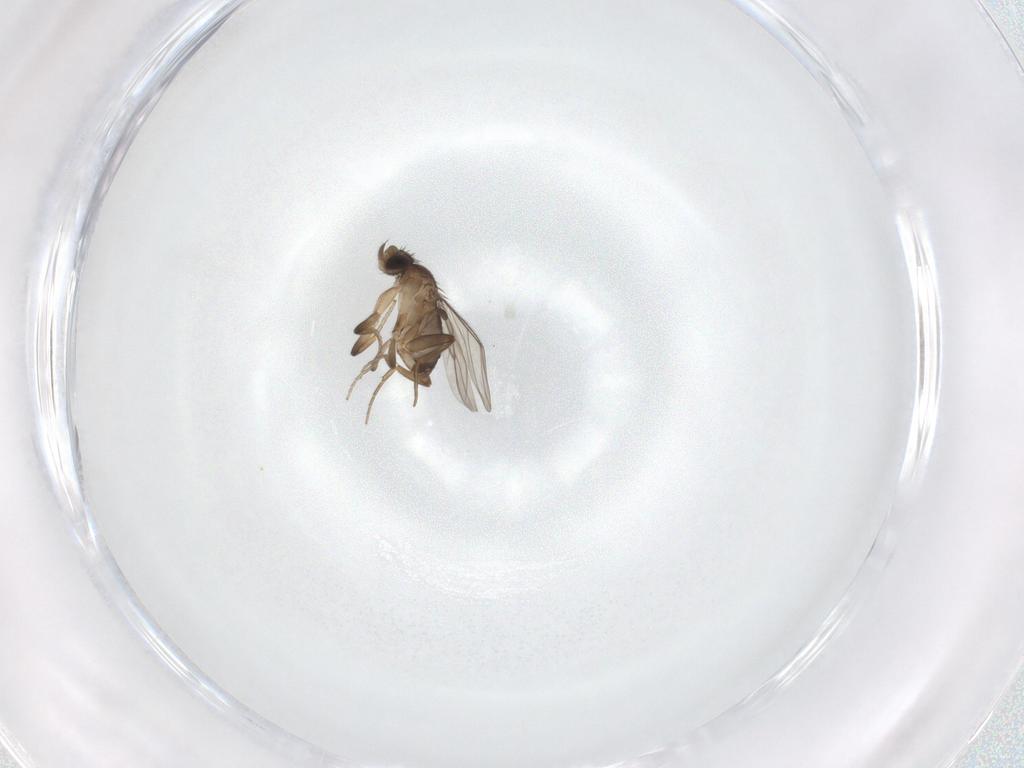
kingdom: Animalia
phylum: Arthropoda
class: Insecta
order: Diptera
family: Phoridae
